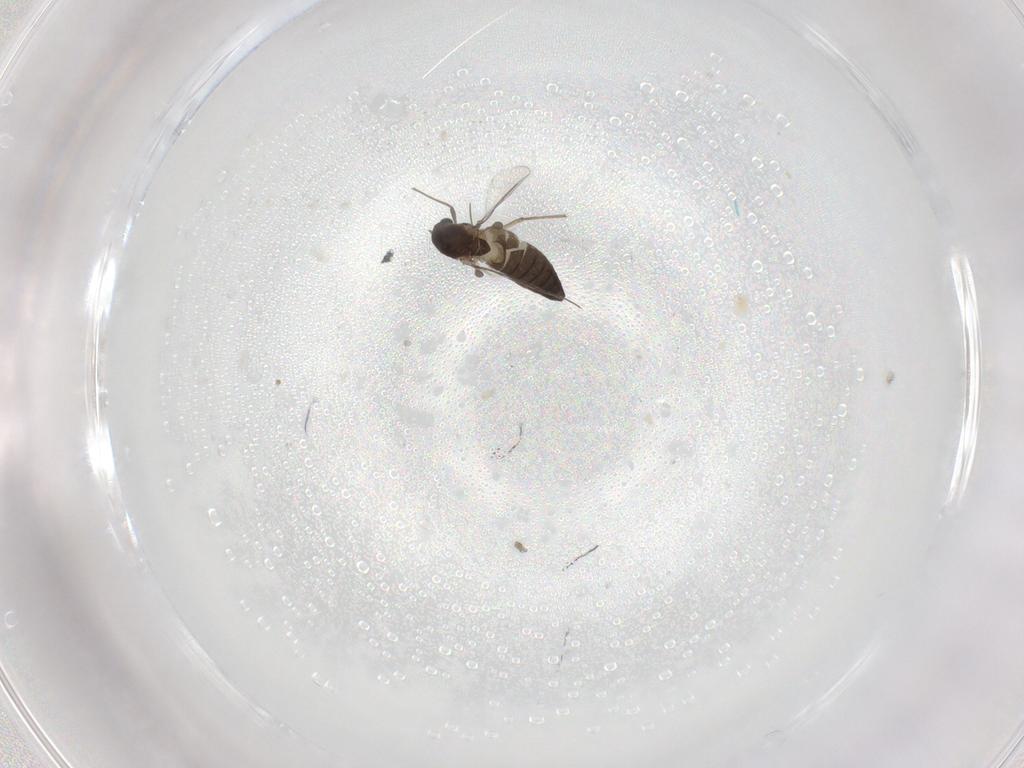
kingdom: Animalia
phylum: Arthropoda
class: Insecta
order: Diptera
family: Chironomidae
